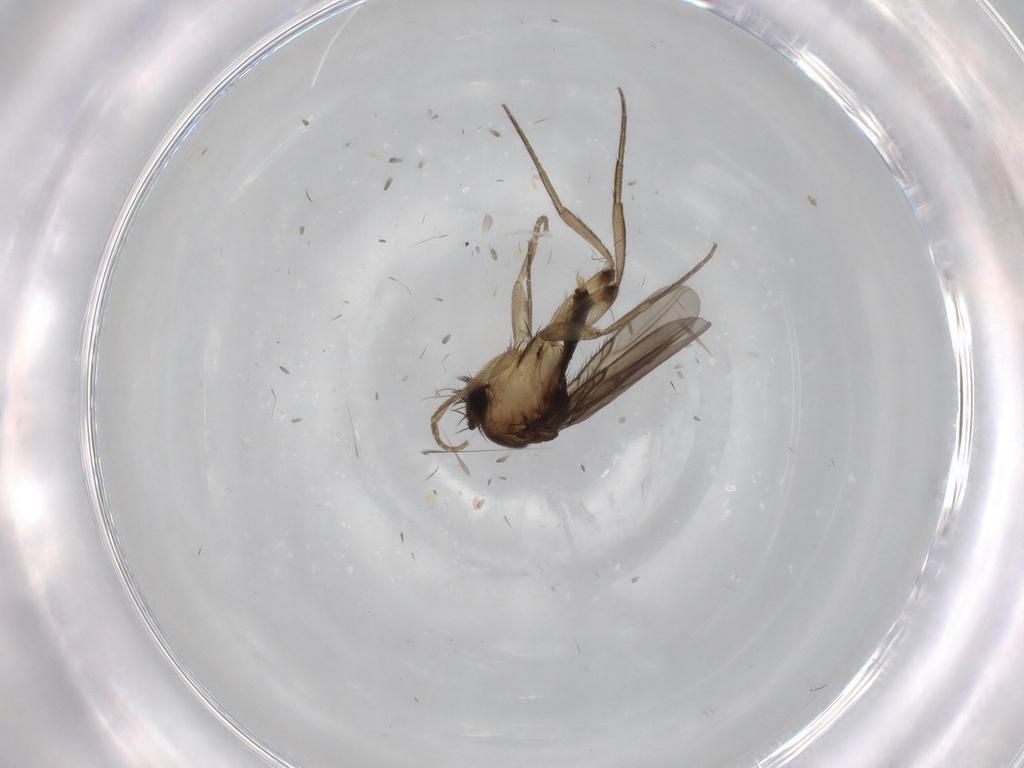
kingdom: Animalia
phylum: Arthropoda
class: Insecta
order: Diptera
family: Phoridae
